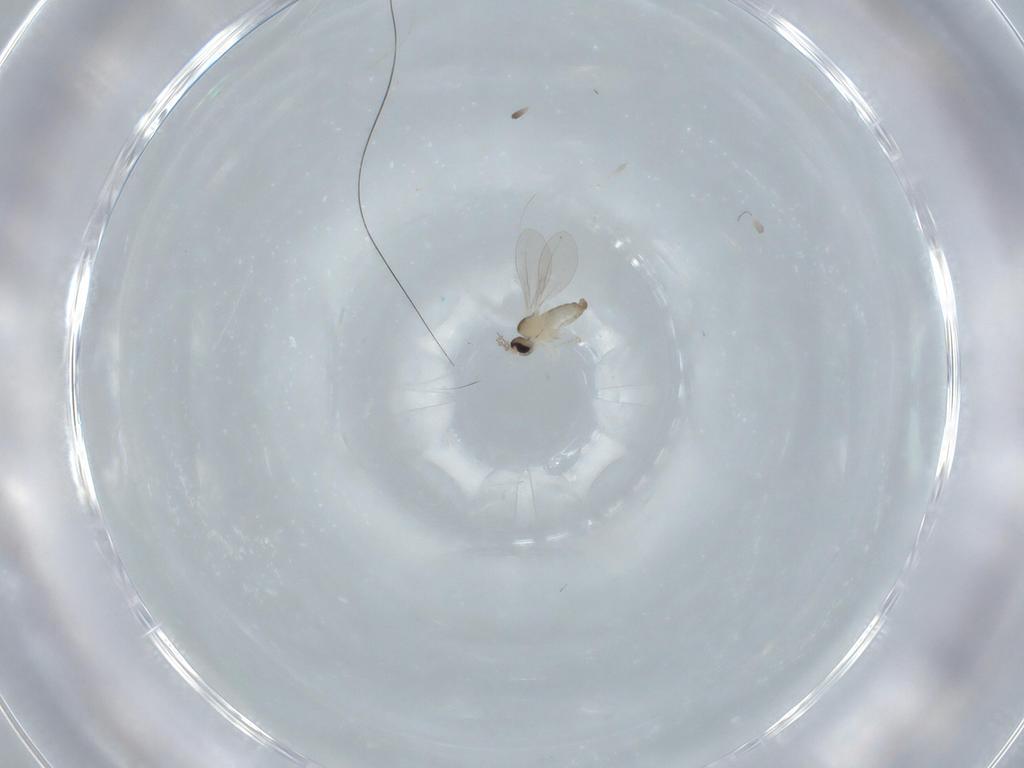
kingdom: Animalia
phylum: Arthropoda
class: Insecta
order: Diptera
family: Cecidomyiidae
